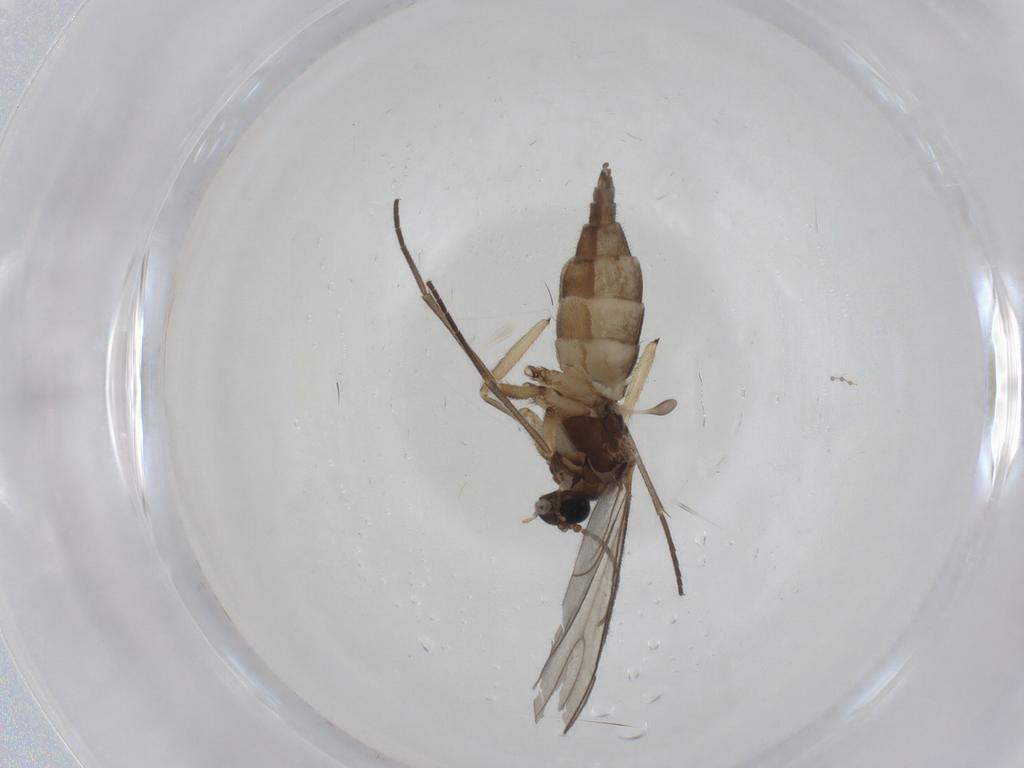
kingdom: Animalia
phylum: Arthropoda
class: Insecta
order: Diptera
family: Sciaridae
